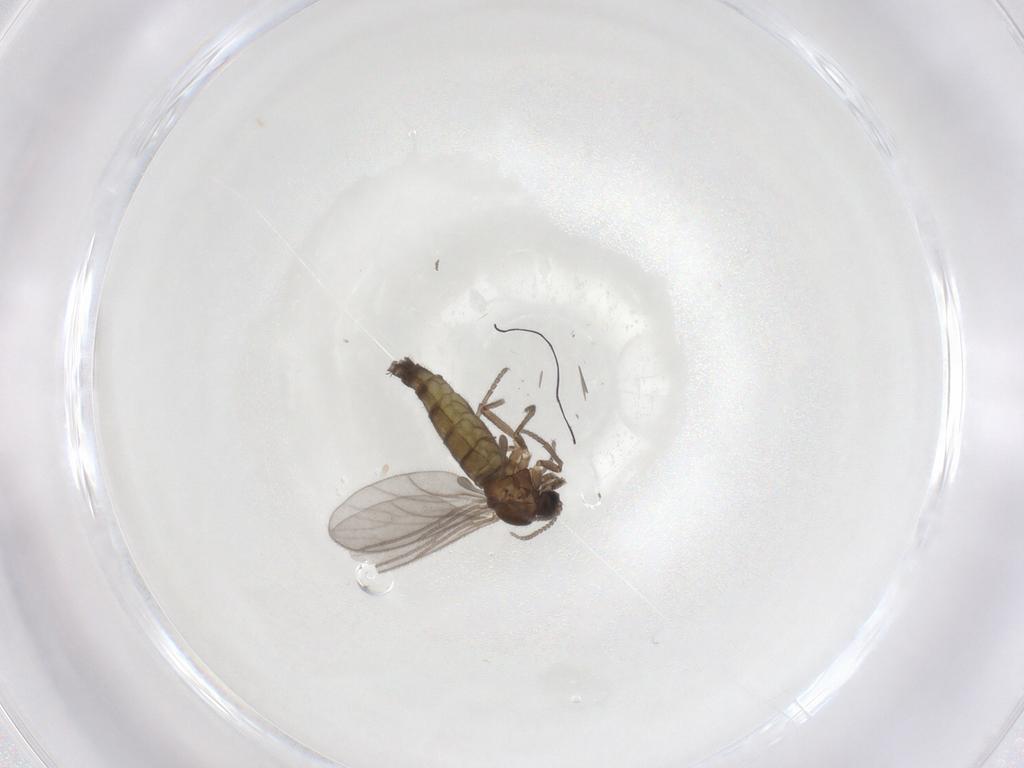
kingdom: Animalia
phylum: Arthropoda
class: Insecta
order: Diptera
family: Sciaridae
